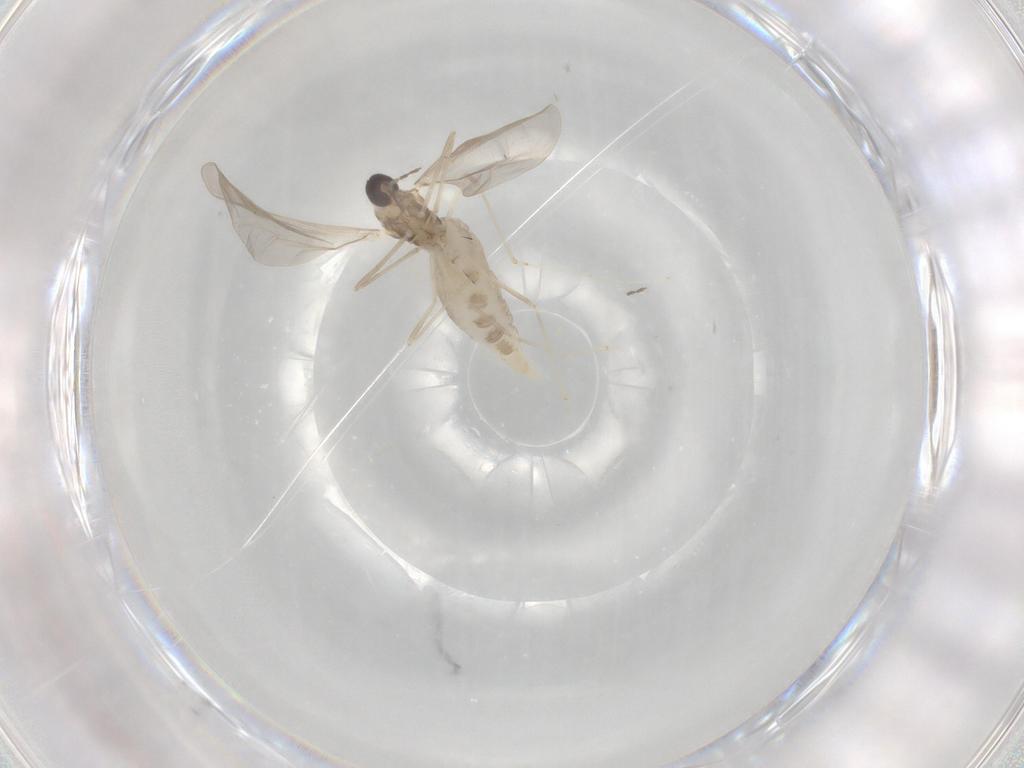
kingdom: Animalia
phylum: Arthropoda
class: Insecta
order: Diptera
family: Cecidomyiidae
